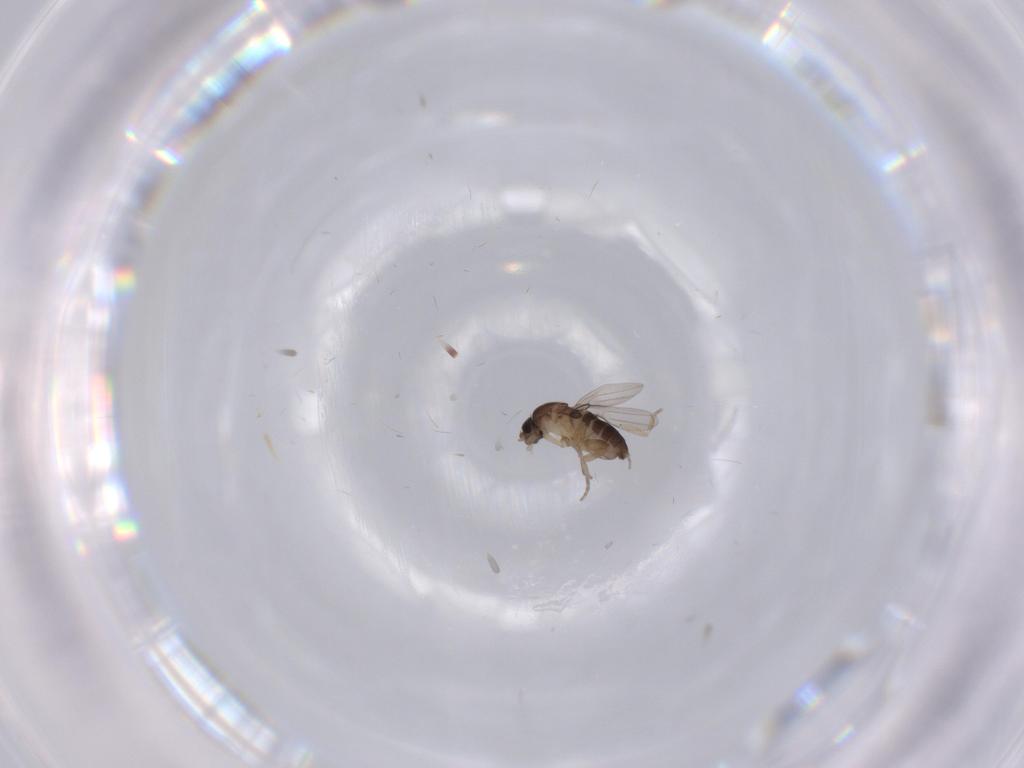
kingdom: Animalia
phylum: Arthropoda
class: Insecta
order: Diptera
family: Phoridae
